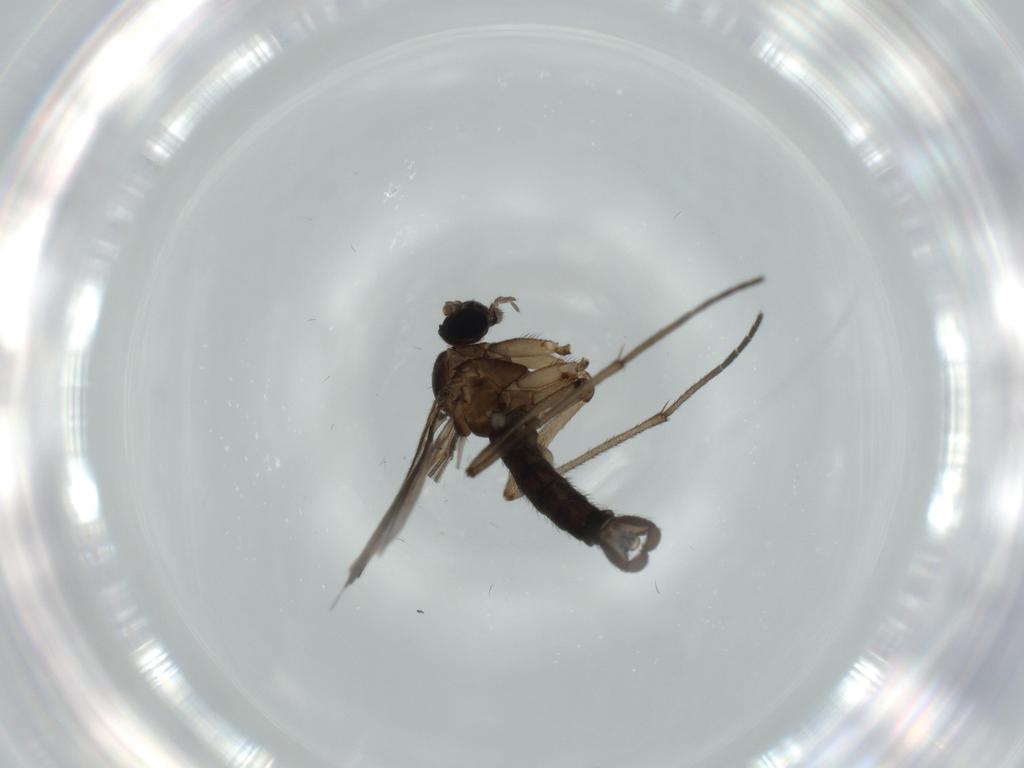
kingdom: Animalia
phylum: Arthropoda
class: Insecta
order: Diptera
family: Sciaridae
